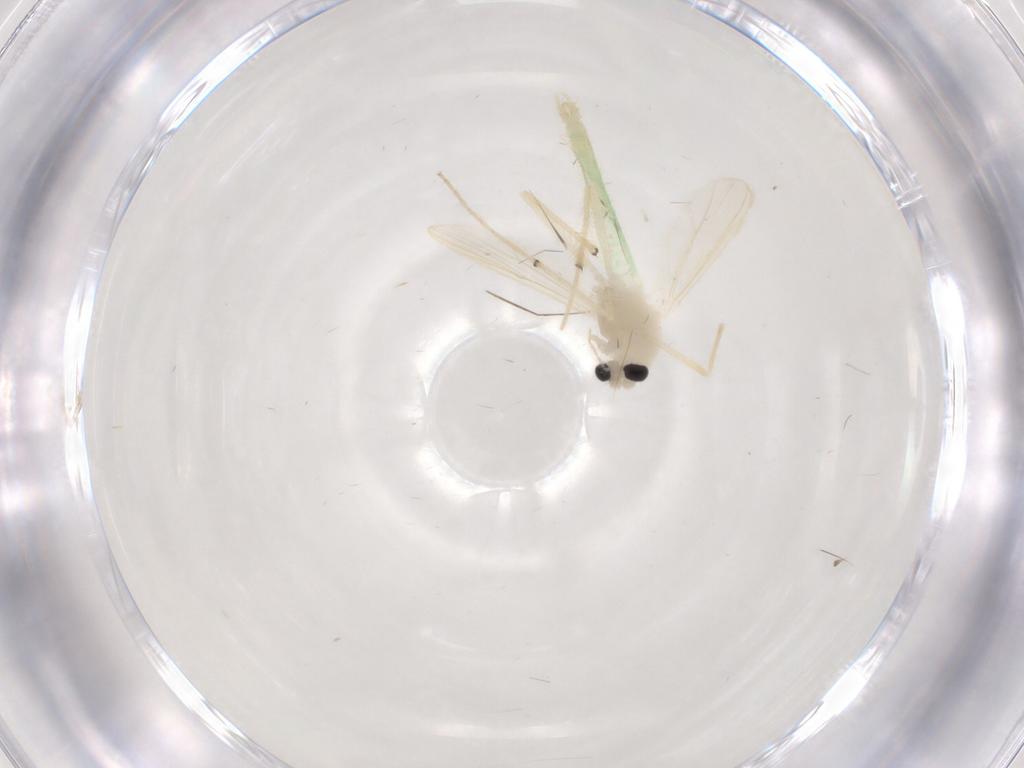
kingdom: Animalia
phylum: Arthropoda
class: Insecta
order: Diptera
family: Chironomidae
